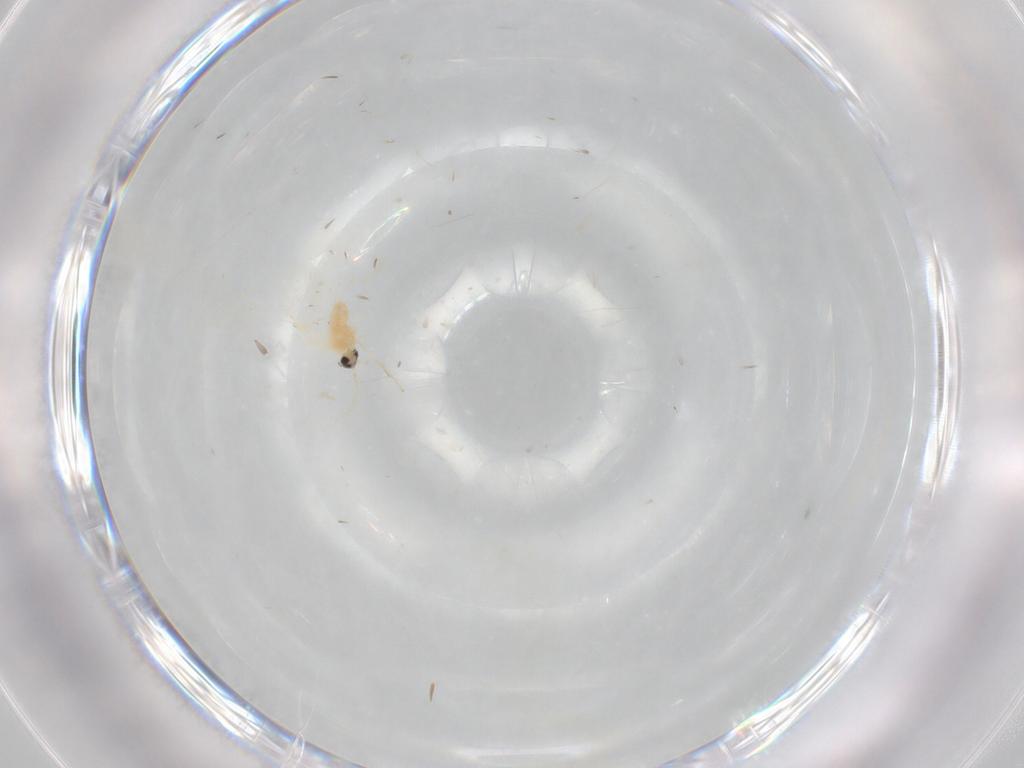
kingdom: Animalia
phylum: Arthropoda
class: Insecta
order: Diptera
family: Cecidomyiidae
